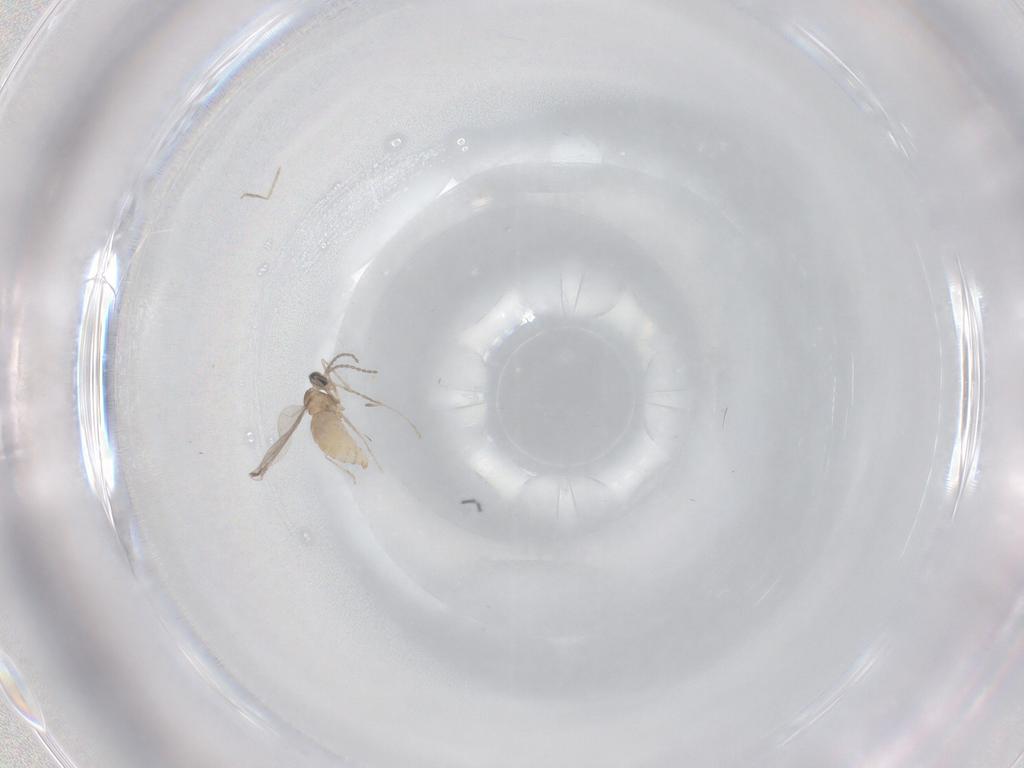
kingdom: Animalia
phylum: Arthropoda
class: Insecta
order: Diptera
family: Cecidomyiidae
